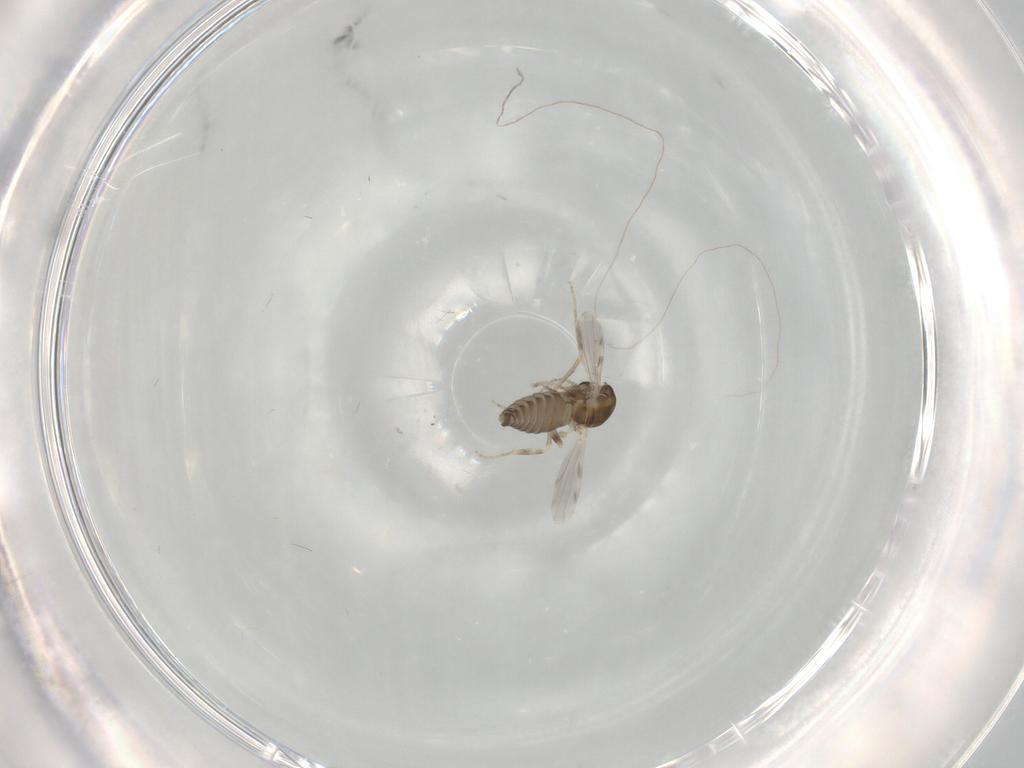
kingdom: Animalia
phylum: Arthropoda
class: Insecta
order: Diptera
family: Ceratopogonidae
